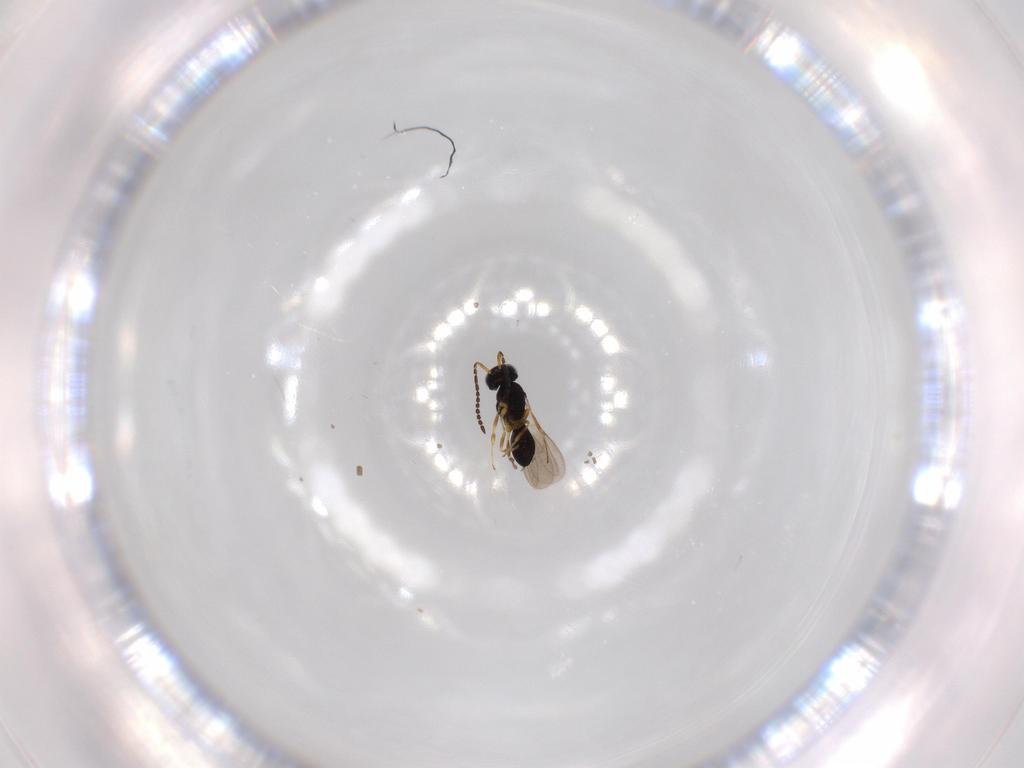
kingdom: Animalia
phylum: Arthropoda
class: Insecta
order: Hymenoptera
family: Scelionidae
